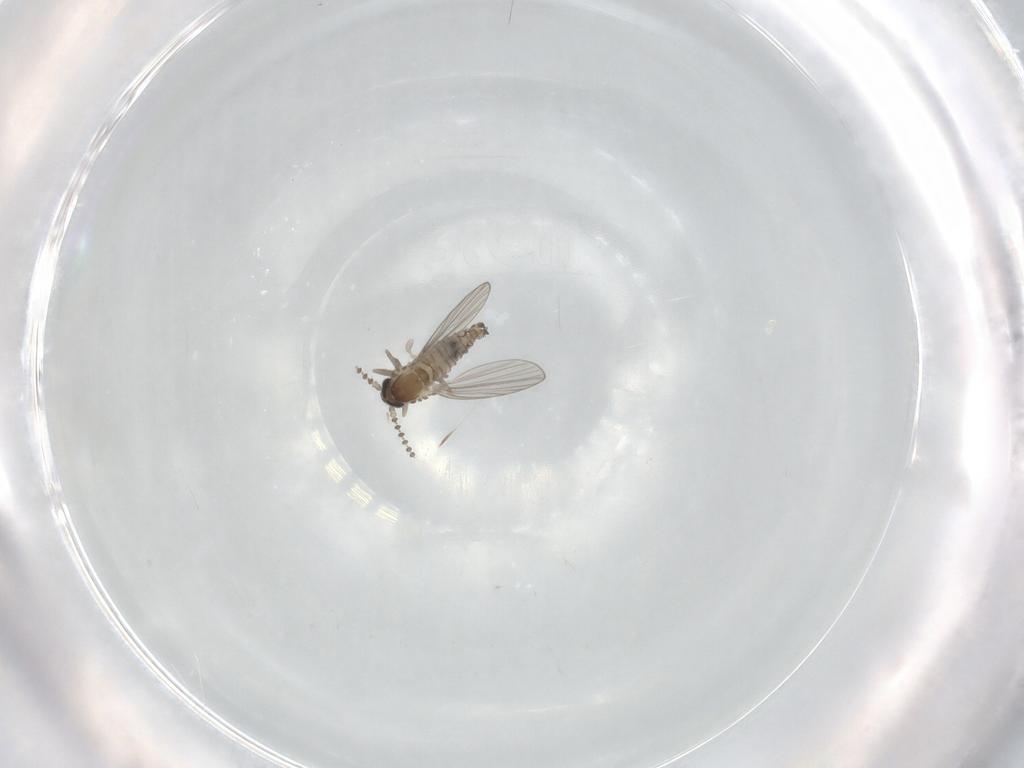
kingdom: Animalia
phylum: Arthropoda
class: Insecta
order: Diptera
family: Psychodidae
